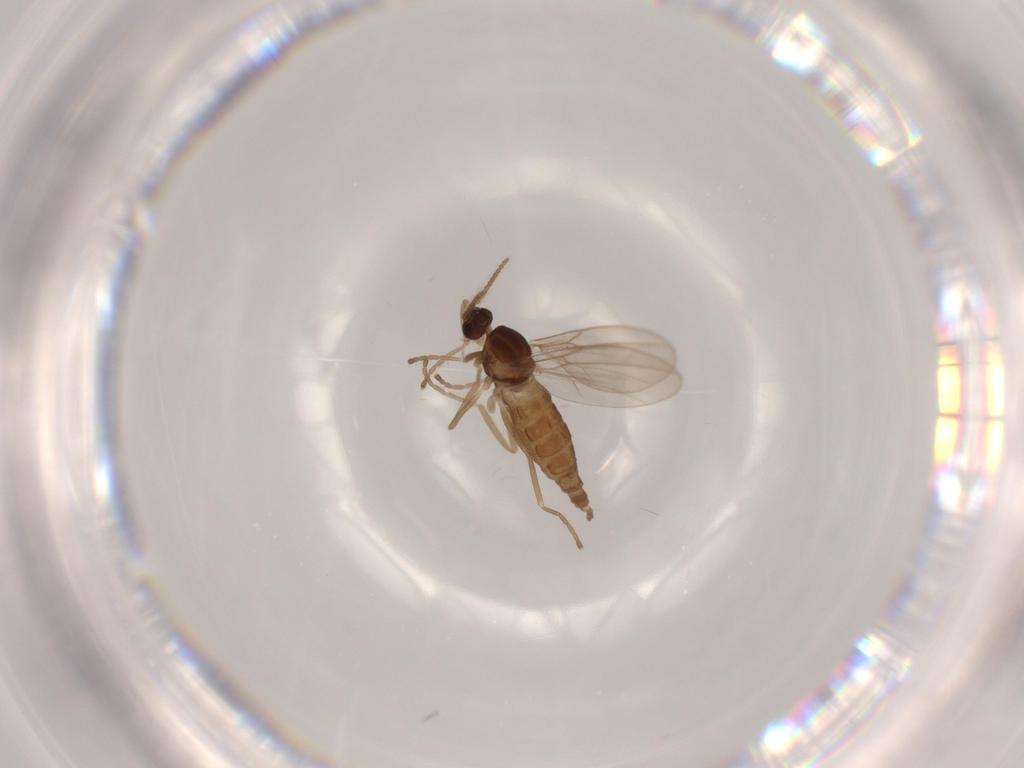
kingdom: Animalia
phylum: Arthropoda
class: Insecta
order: Diptera
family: Cecidomyiidae
